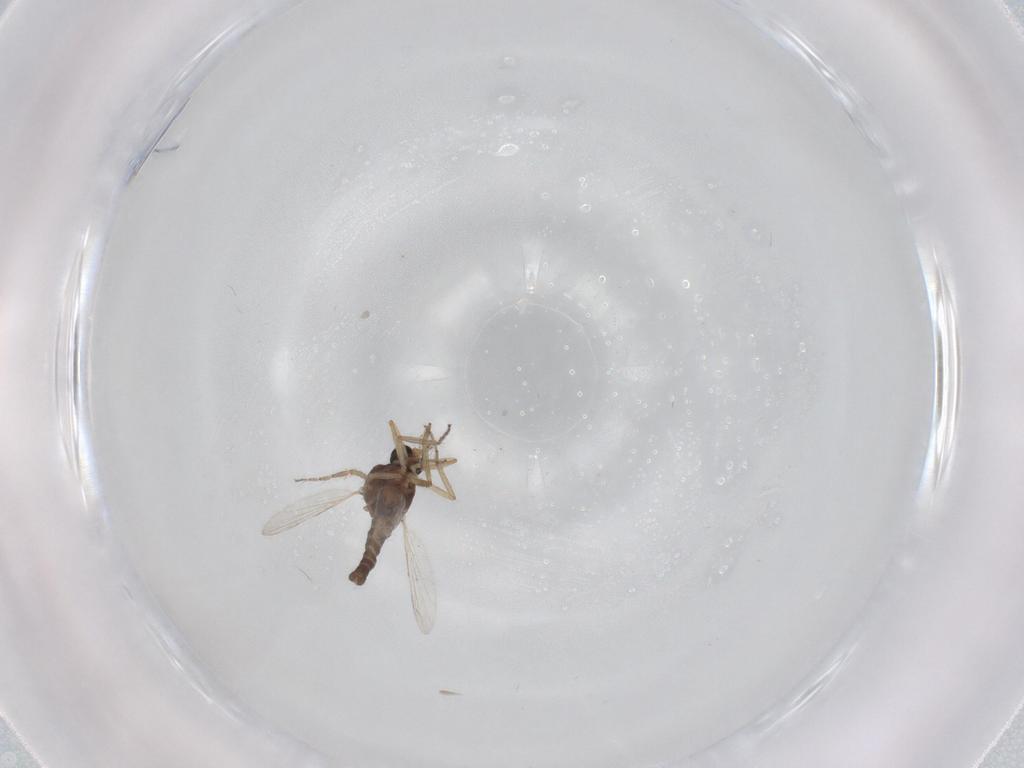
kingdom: Animalia
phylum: Arthropoda
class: Insecta
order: Diptera
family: Ceratopogonidae
